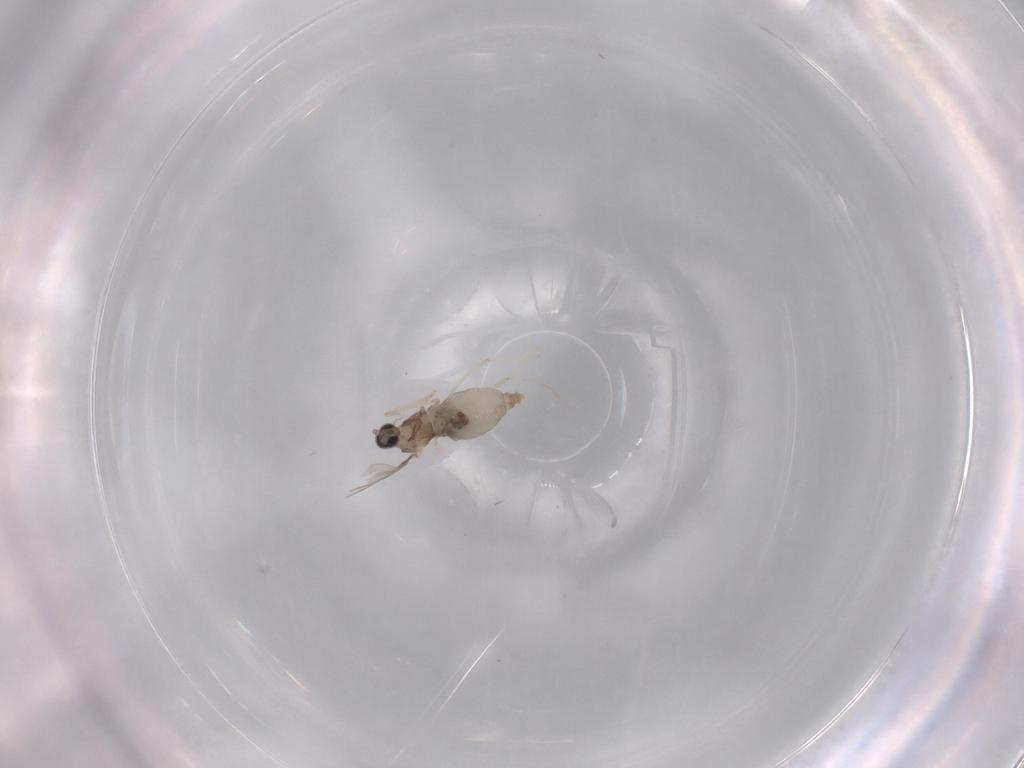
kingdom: Animalia
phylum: Arthropoda
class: Insecta
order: Diptera
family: Cecidomyiidae
